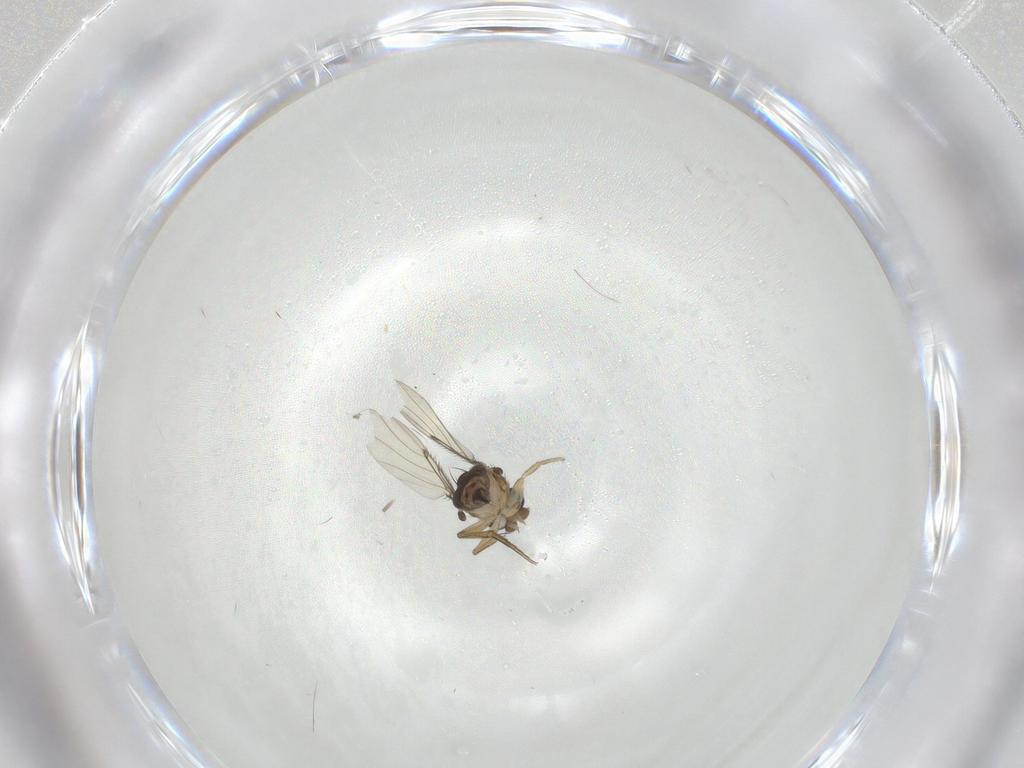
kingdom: Animalia
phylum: Arthropoda
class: Insecta
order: Diptera
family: Phoridae
